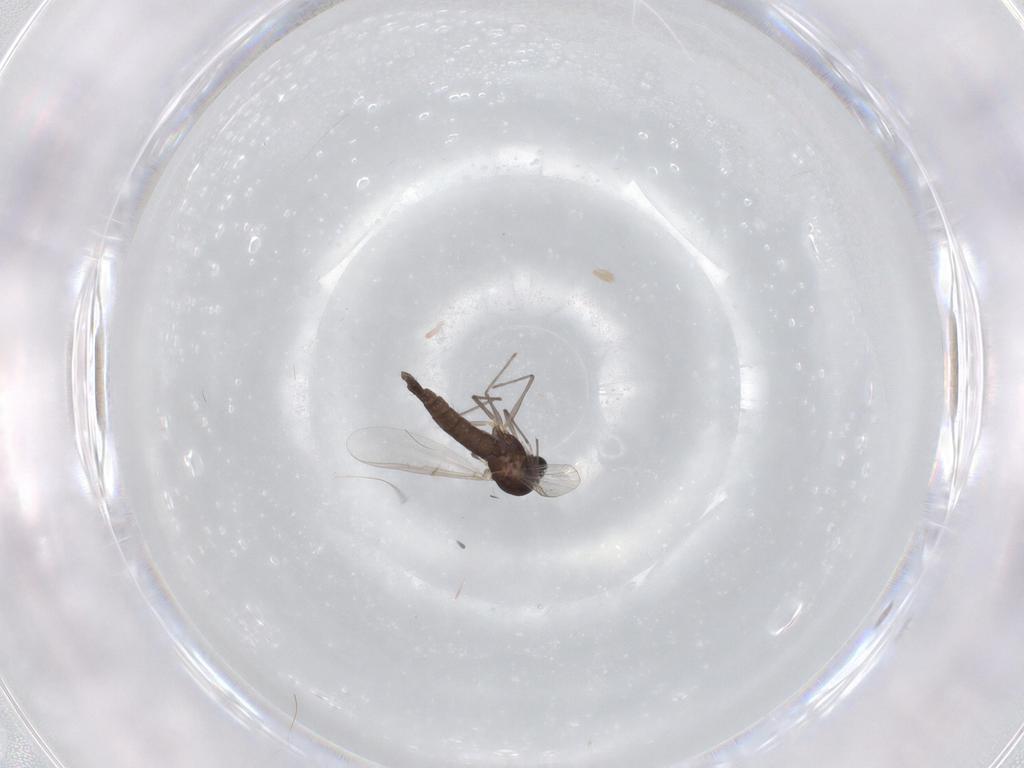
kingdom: Animalia
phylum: Arthropoda
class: Insecta
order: Diptera
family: Chironomidae
